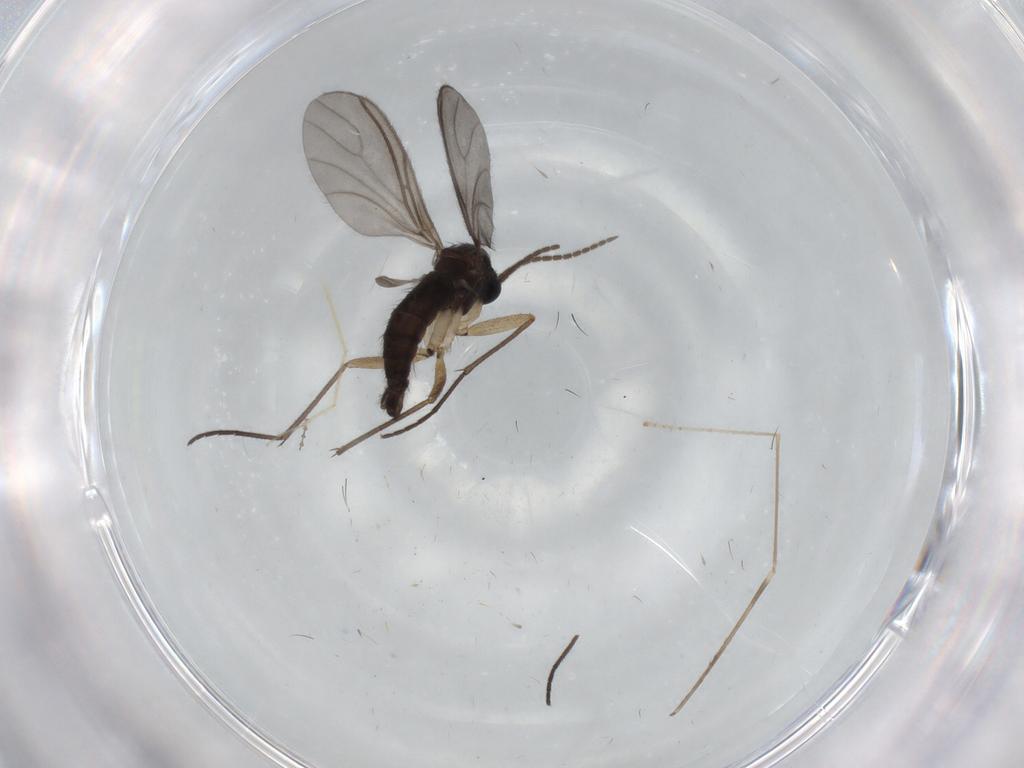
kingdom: Animalia
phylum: Arthropoda
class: Insecta
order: Diptera
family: Sciaridae
